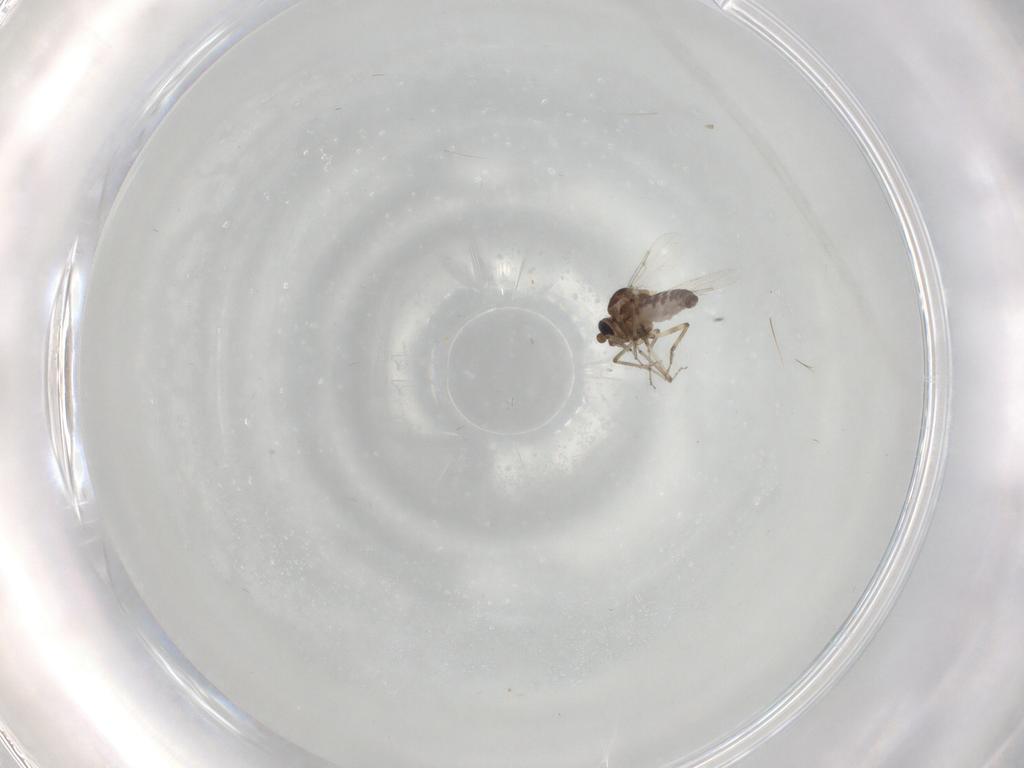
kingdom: Animalia
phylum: Arthropoda
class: Insecta
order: Diptera
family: Ceratopogonidae
